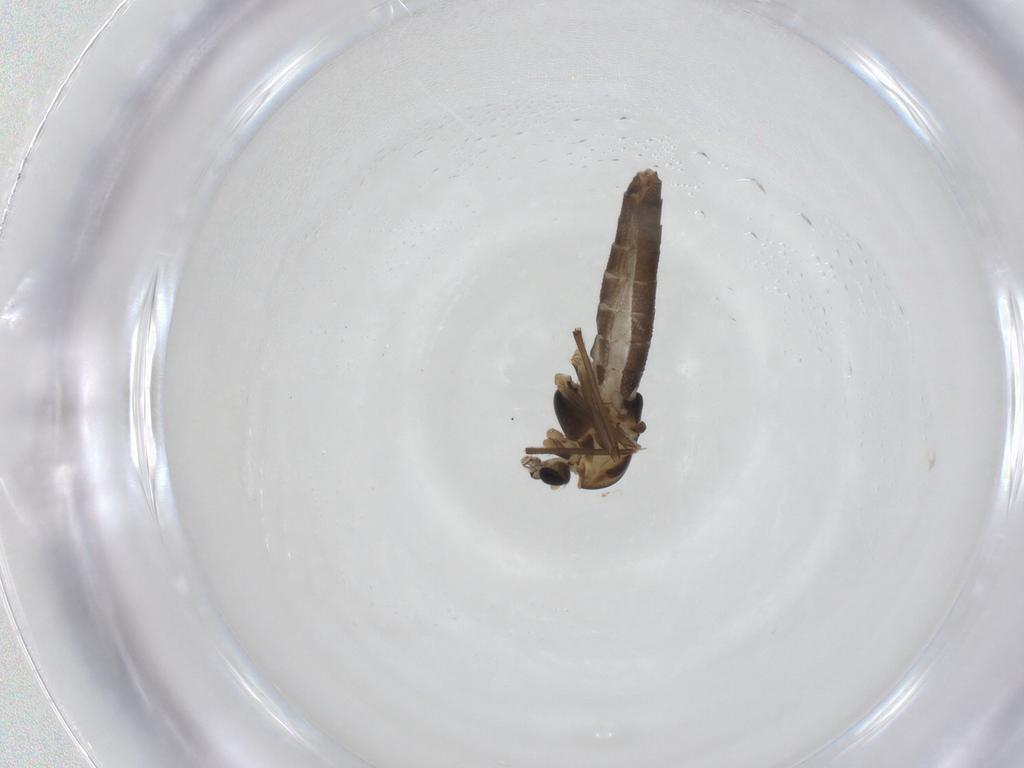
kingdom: Animalia
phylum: Arthropoda
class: Insecta
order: Diptera
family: Chironomidae
